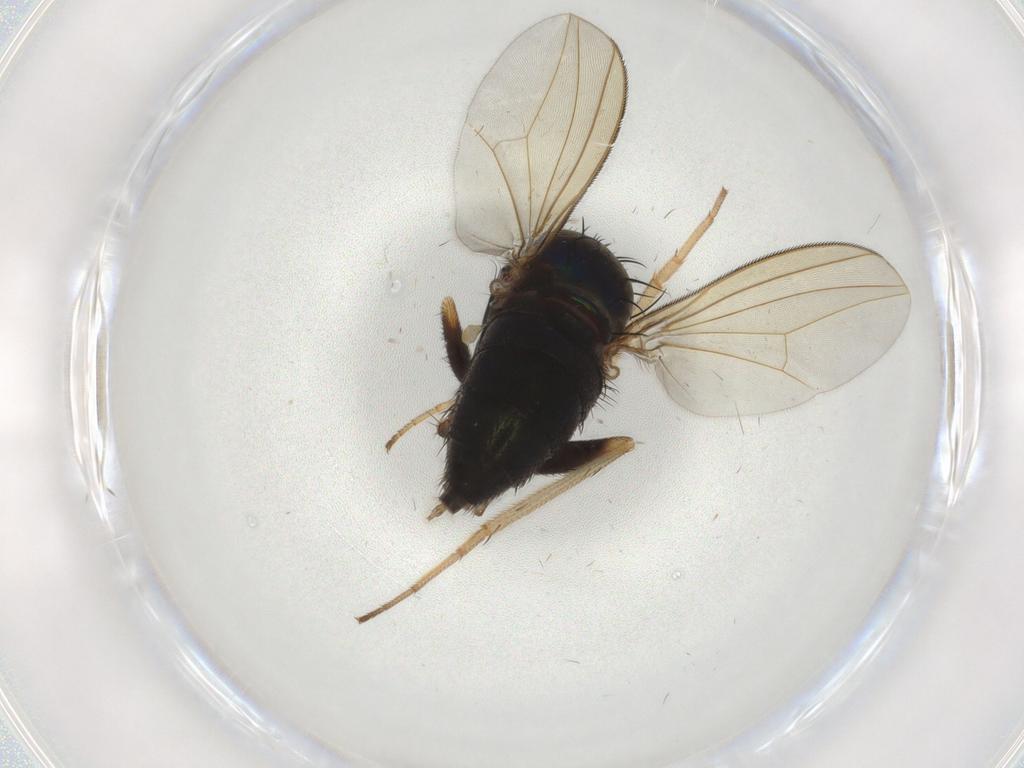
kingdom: Animalia
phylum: Arthropoda
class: Insecta
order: Diptera
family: Dolichopodidae
